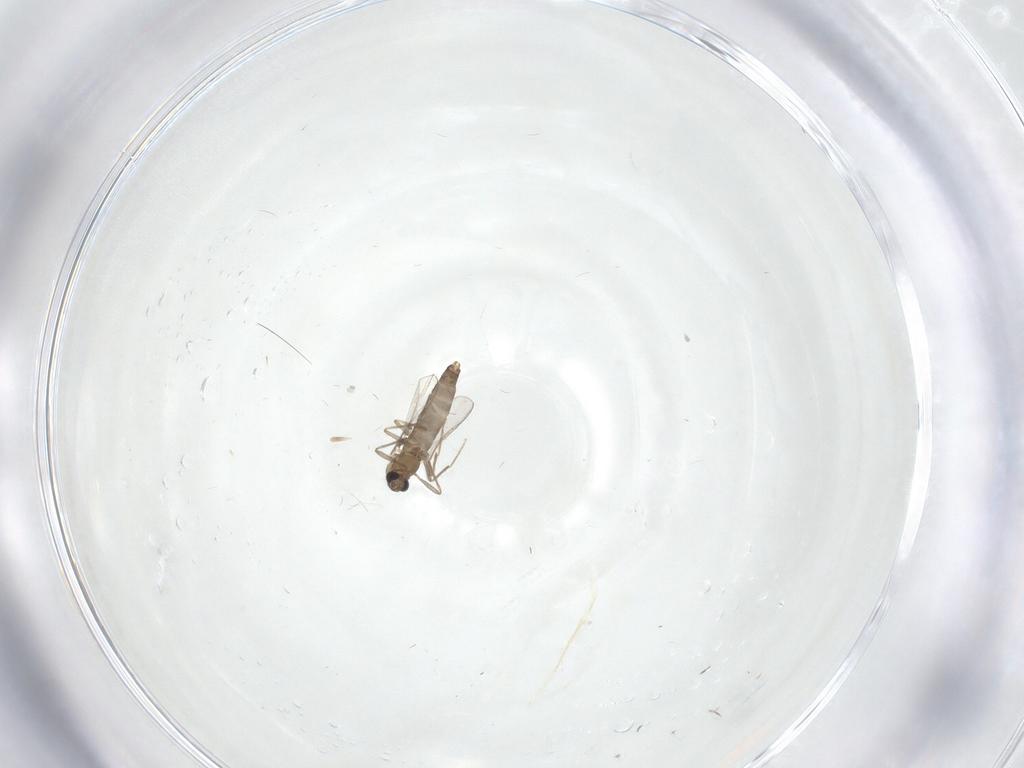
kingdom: Animalia
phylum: Arthropoda
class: Insecta
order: Diptera
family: Chironomidae
